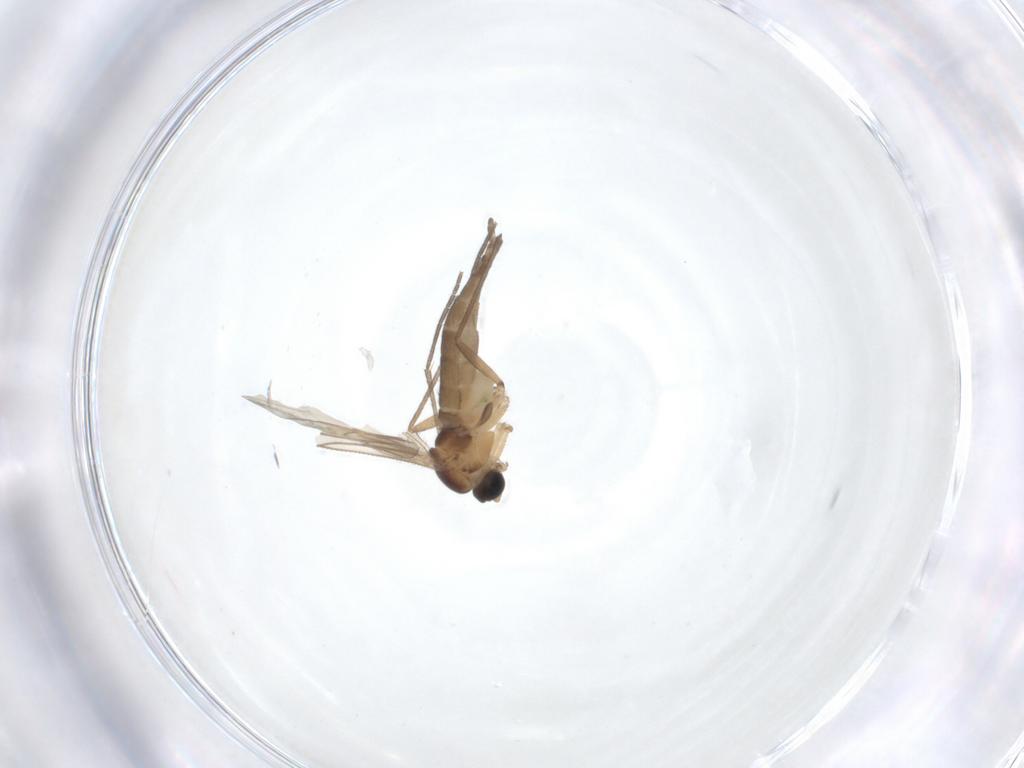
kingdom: Animalia
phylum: Arthropoda
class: Insecta
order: Diptera
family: Sciaridae
